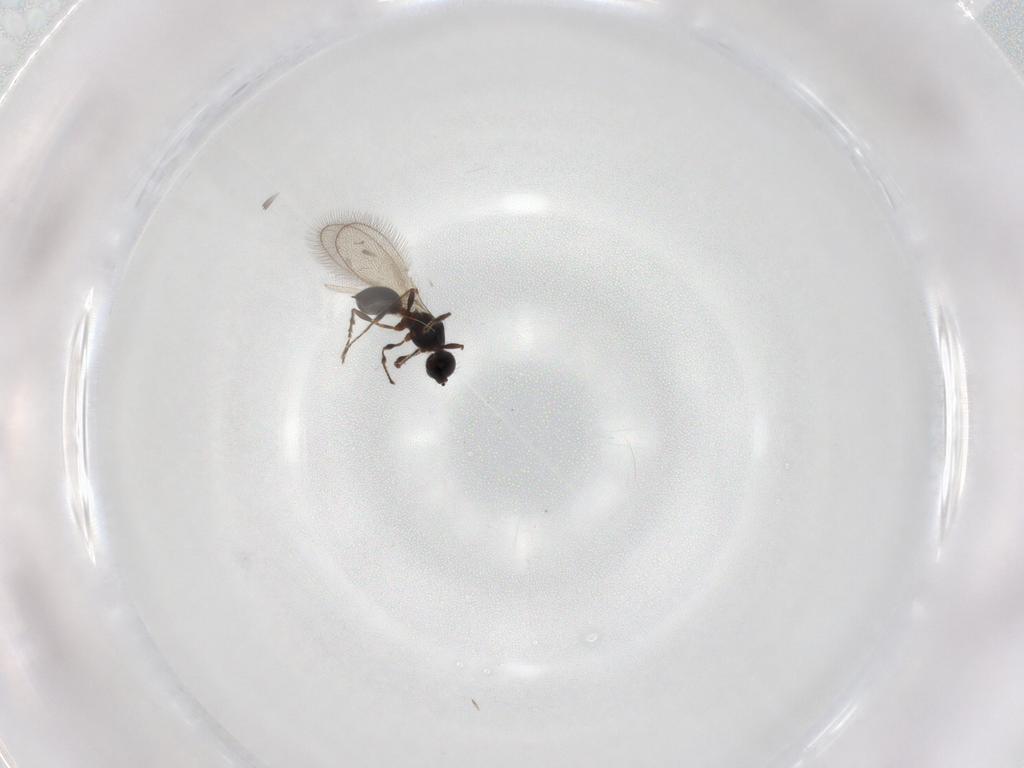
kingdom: Animalia
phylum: Arthropoda
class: Insecta
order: Hymenoptera
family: Diapriidae
